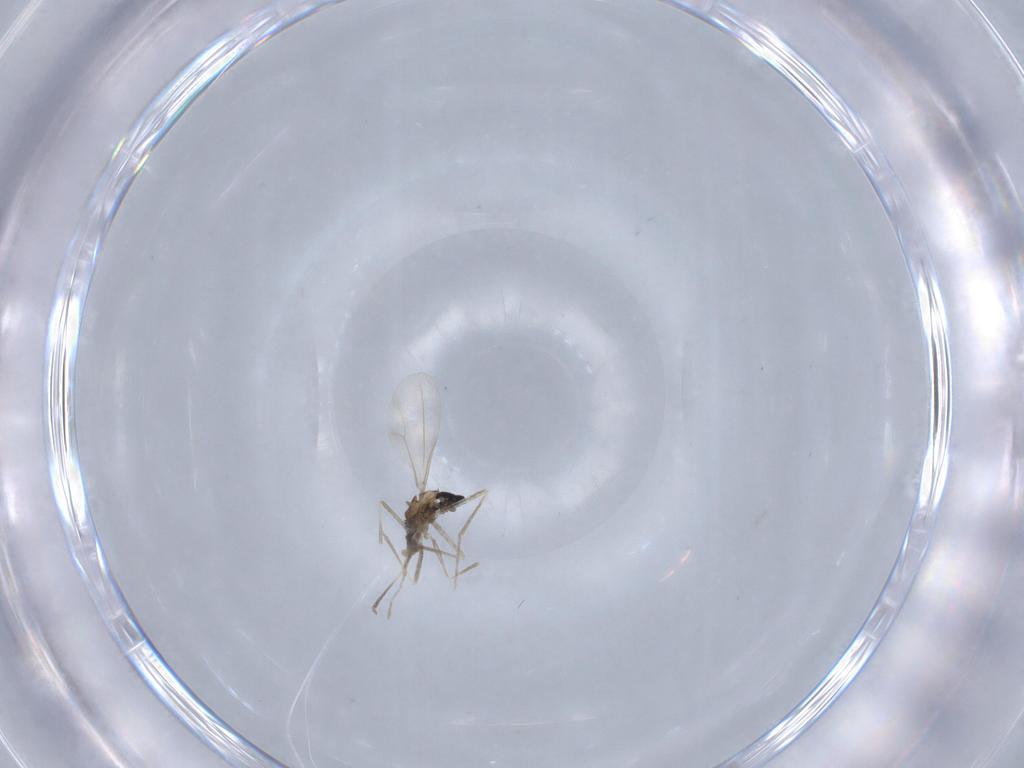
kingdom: Animalia
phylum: Arthropoda
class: Insecta
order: Diptera
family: Cecidomyiidae
